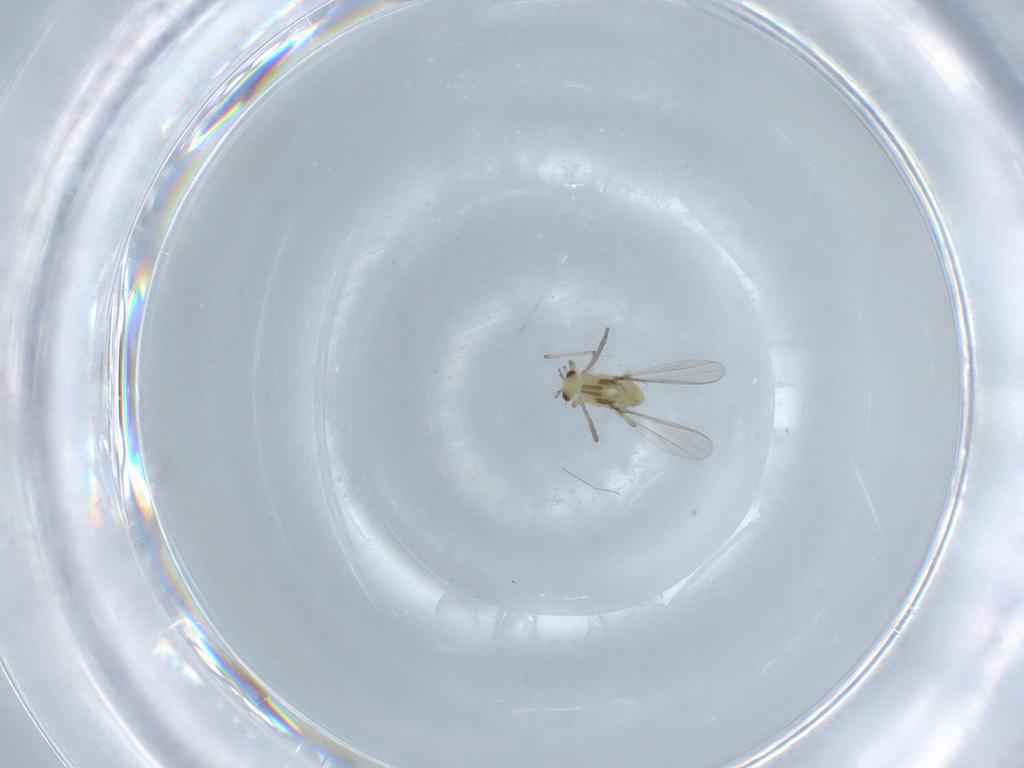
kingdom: Animalia
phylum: Arthropoda
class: Insecta
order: Diptera
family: Chironomidae
